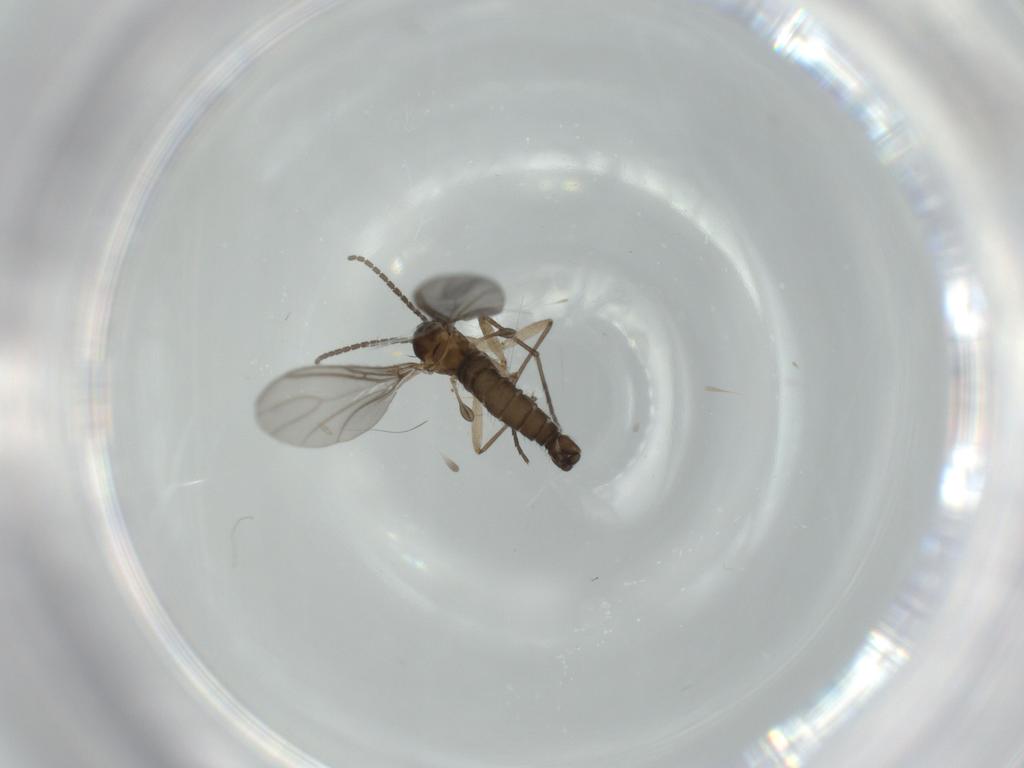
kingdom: Animalia
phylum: Arthropoda
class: Insecta
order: Diptera
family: Sciaridae
